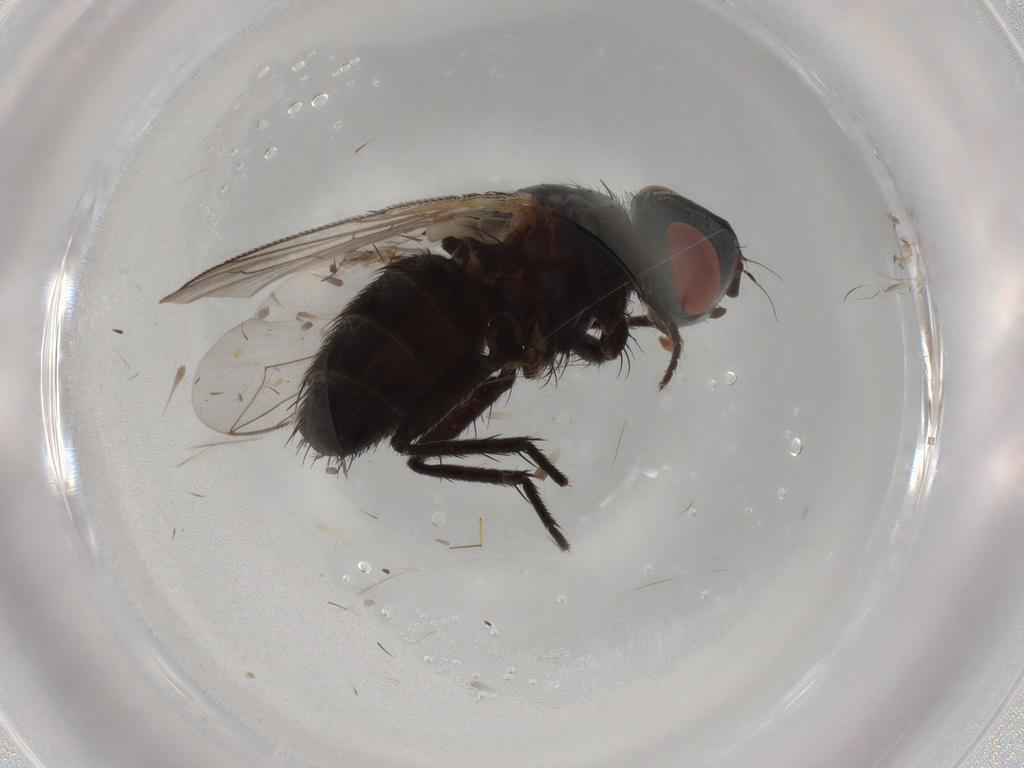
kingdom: Animalia
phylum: Arthropoda
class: Insecta
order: Diptera
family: Sarcophagidae
